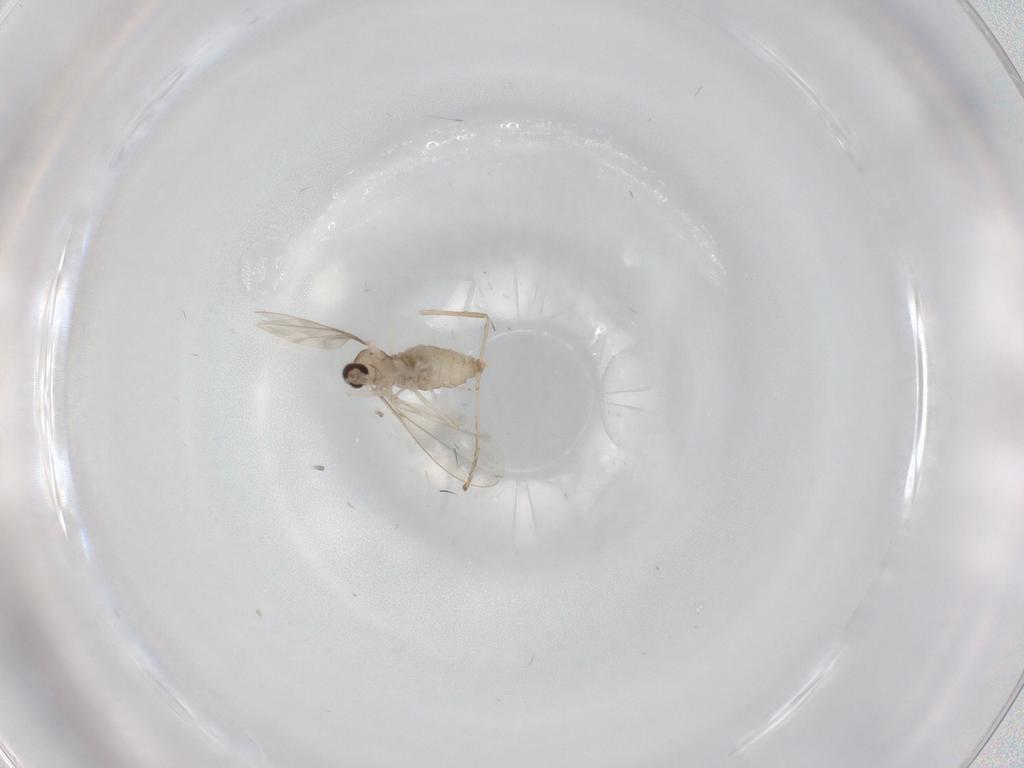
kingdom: Animalia
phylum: Arthropoda
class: Insecta
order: Diptera
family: Cecidomyiidae
